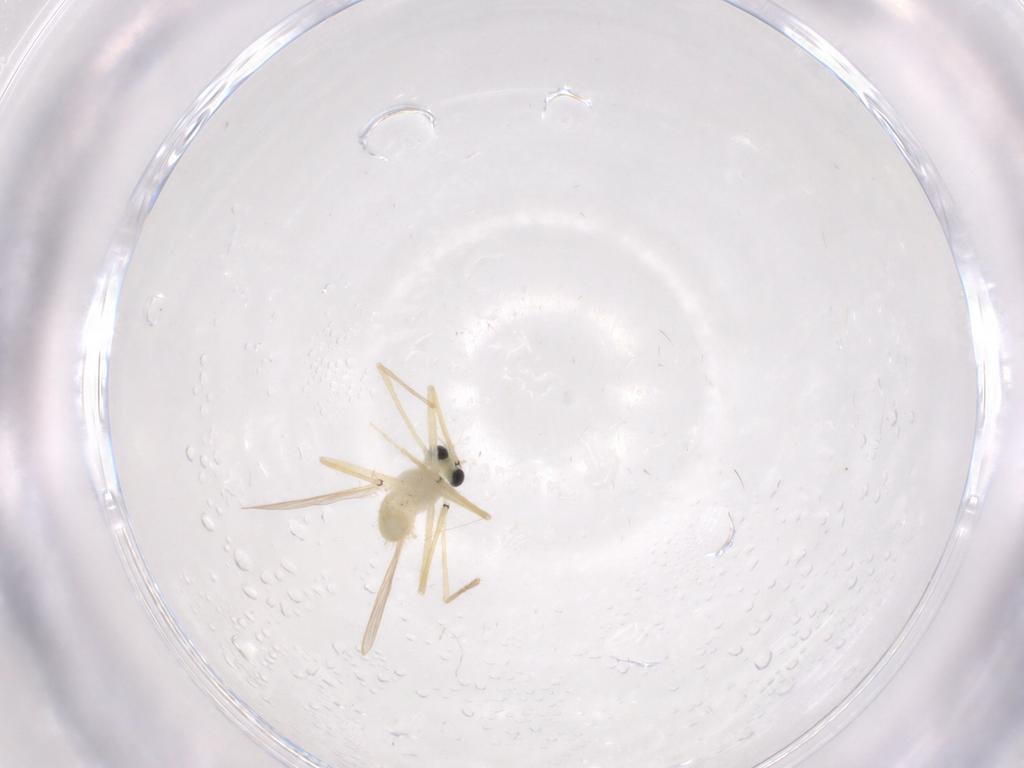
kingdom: Animalia
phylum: Arthropoda
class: Insecta
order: Diptera
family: Chironomidae
